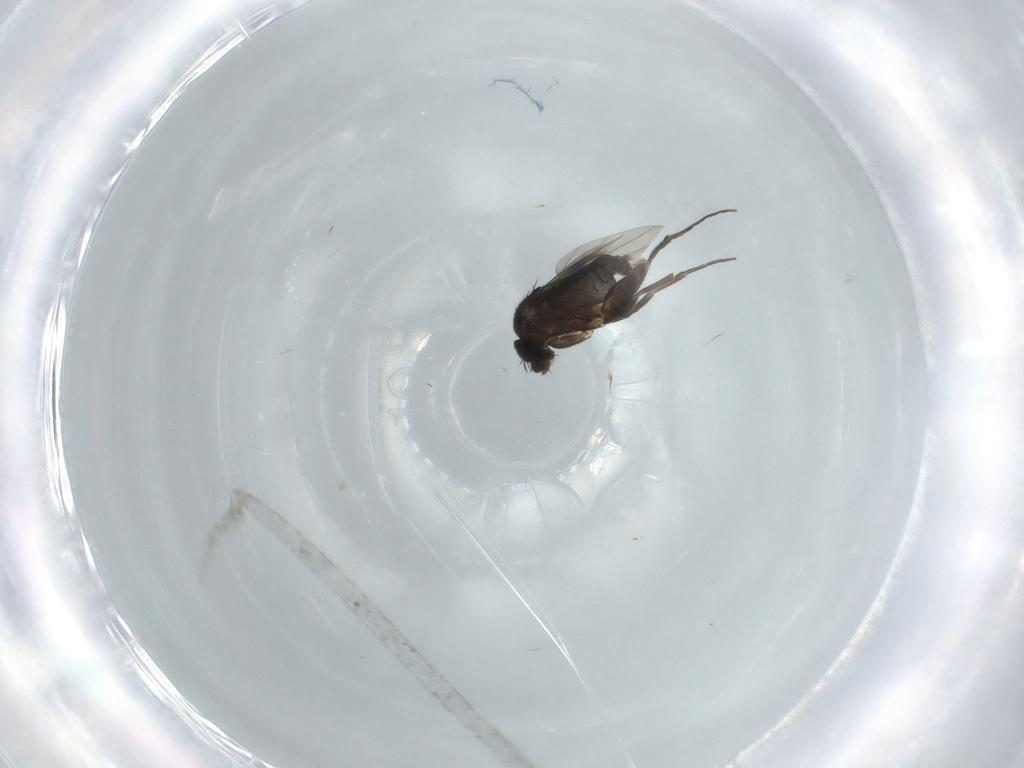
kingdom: Animalia
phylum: Arthropoda
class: Insecta
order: Diptera
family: Phoridae
